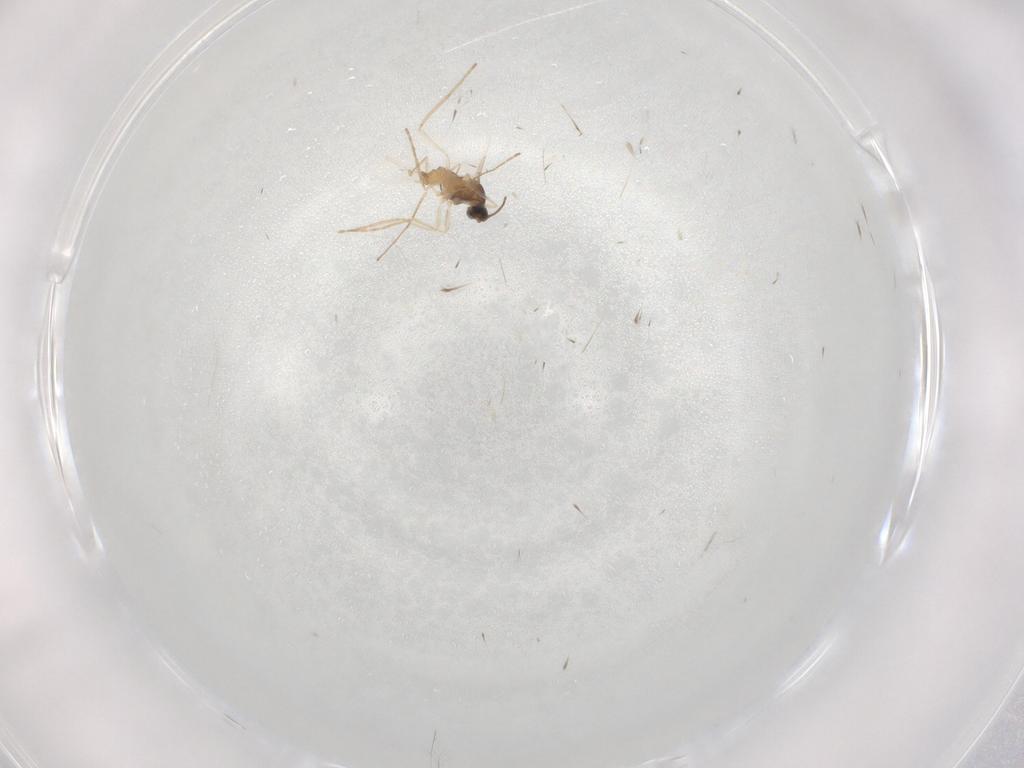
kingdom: Animalia
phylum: Arthropoda
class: Insecta
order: Diptera
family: Cecidomyiidae
